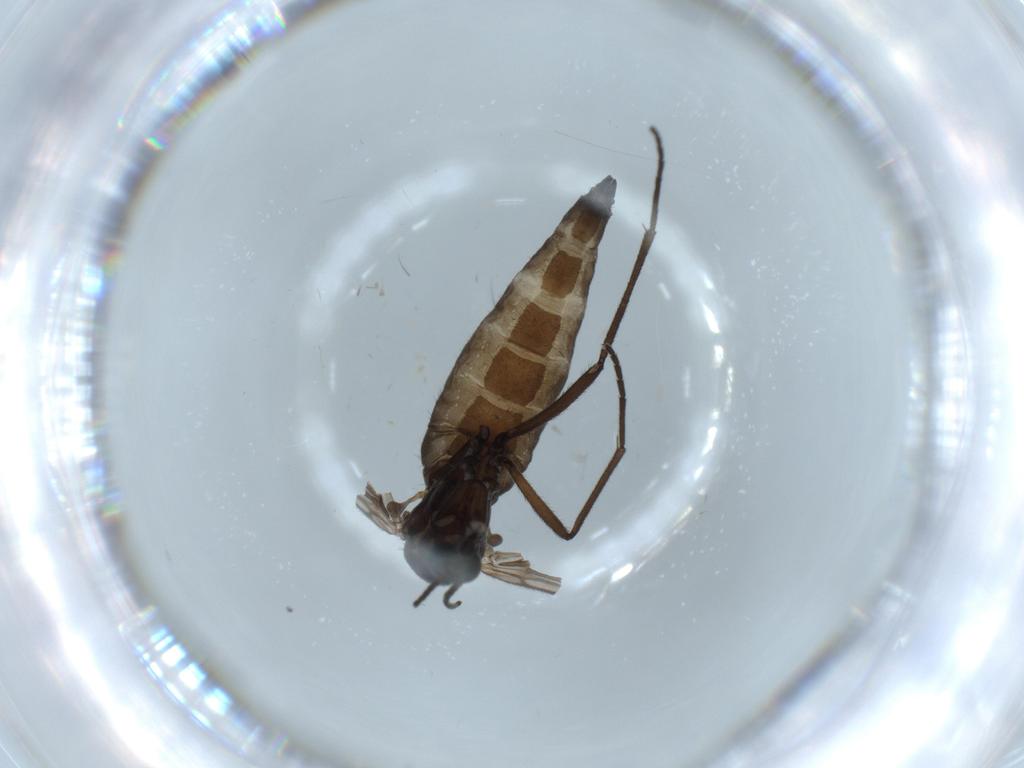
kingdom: Animalia
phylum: Arthropoda
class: Insecta
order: Diptera
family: Sciaridae
